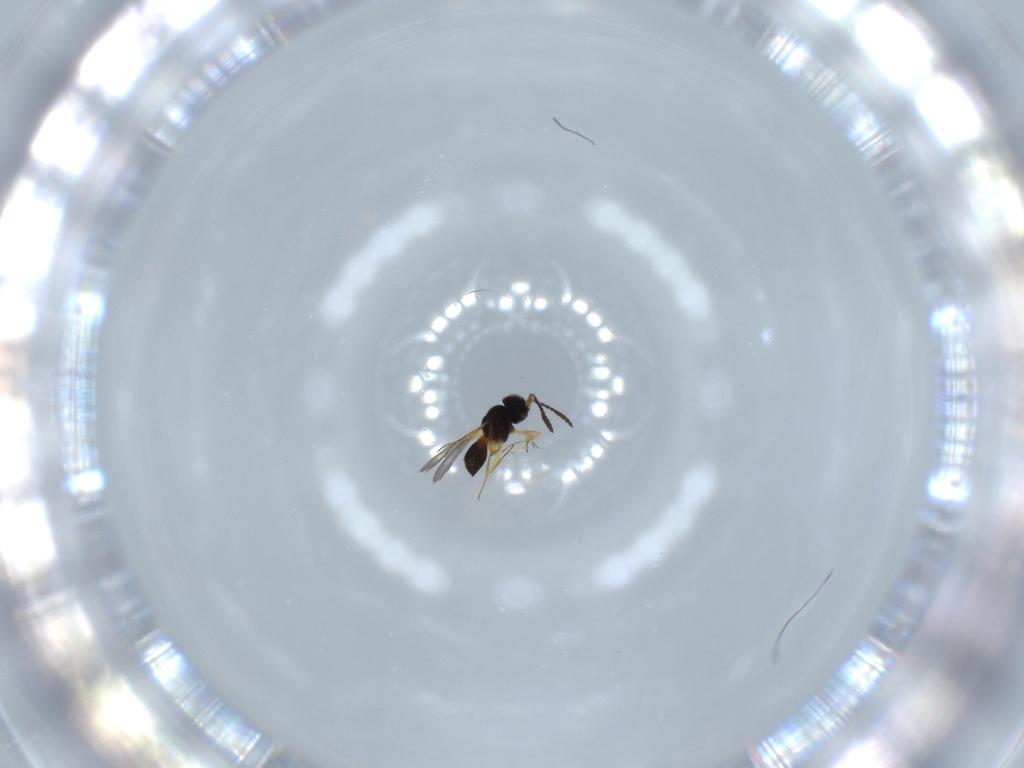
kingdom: Animalia
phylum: Arthropoda
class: Insecta
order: Hymenoptera
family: Scelionidae
